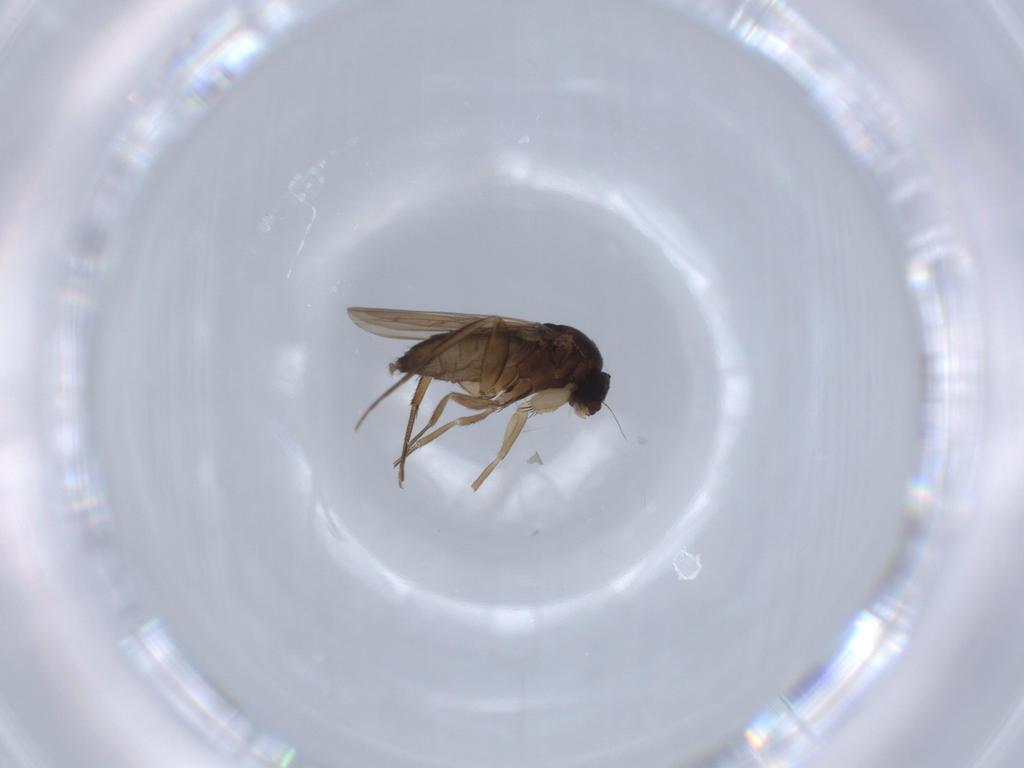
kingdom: Animalia
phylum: Arthropoda
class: Insecta
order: Diptera
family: Phoridae
